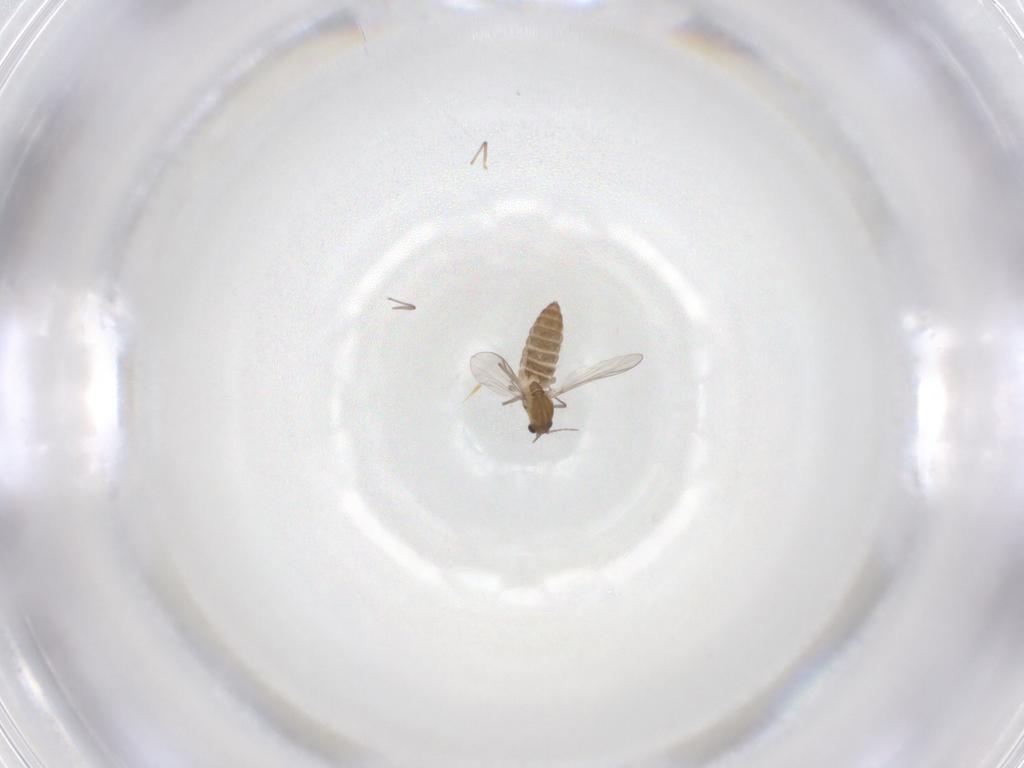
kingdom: Animalia
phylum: Arthropoda
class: Insecta
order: Diptera
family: Chironomidae
